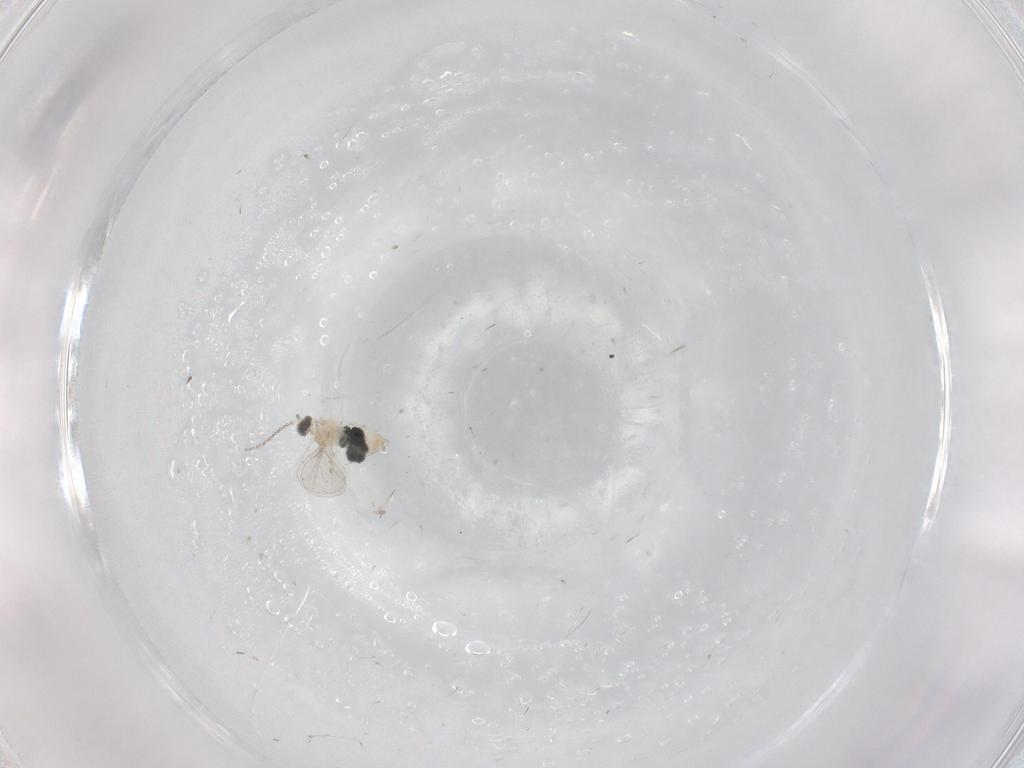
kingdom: Animalia
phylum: Arthropoda
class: Insecta
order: Diptera
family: Cecidomyiidae
